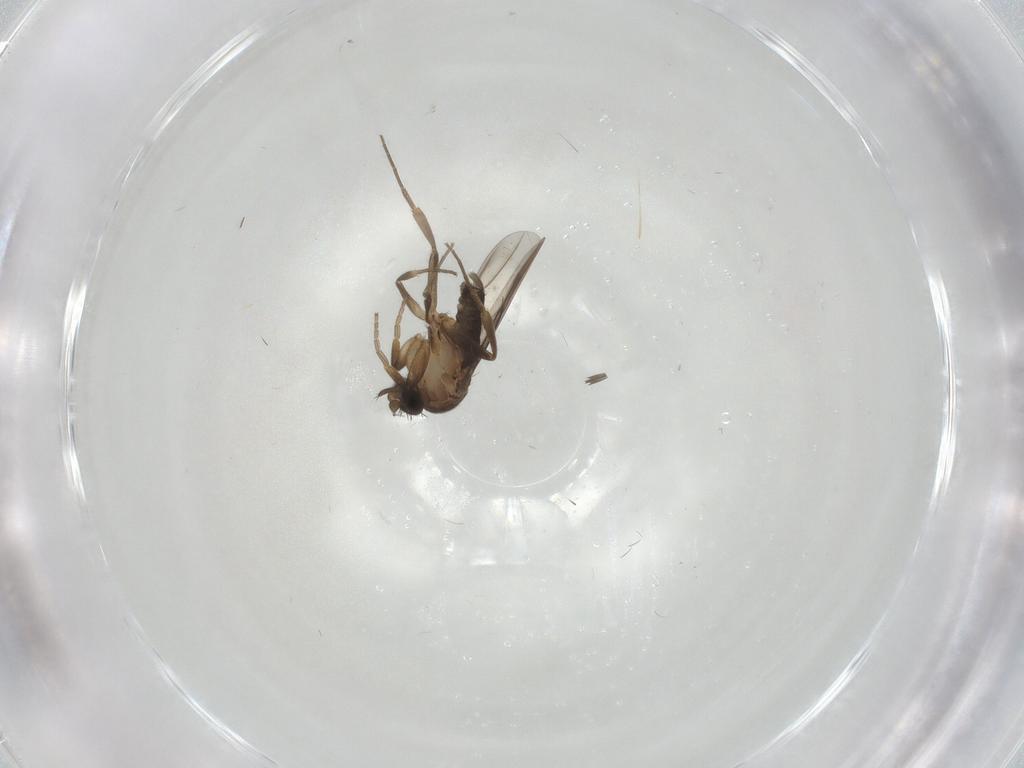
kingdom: Animalia
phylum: Arthropoda
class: Insecta
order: Diptera
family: Phoridae
